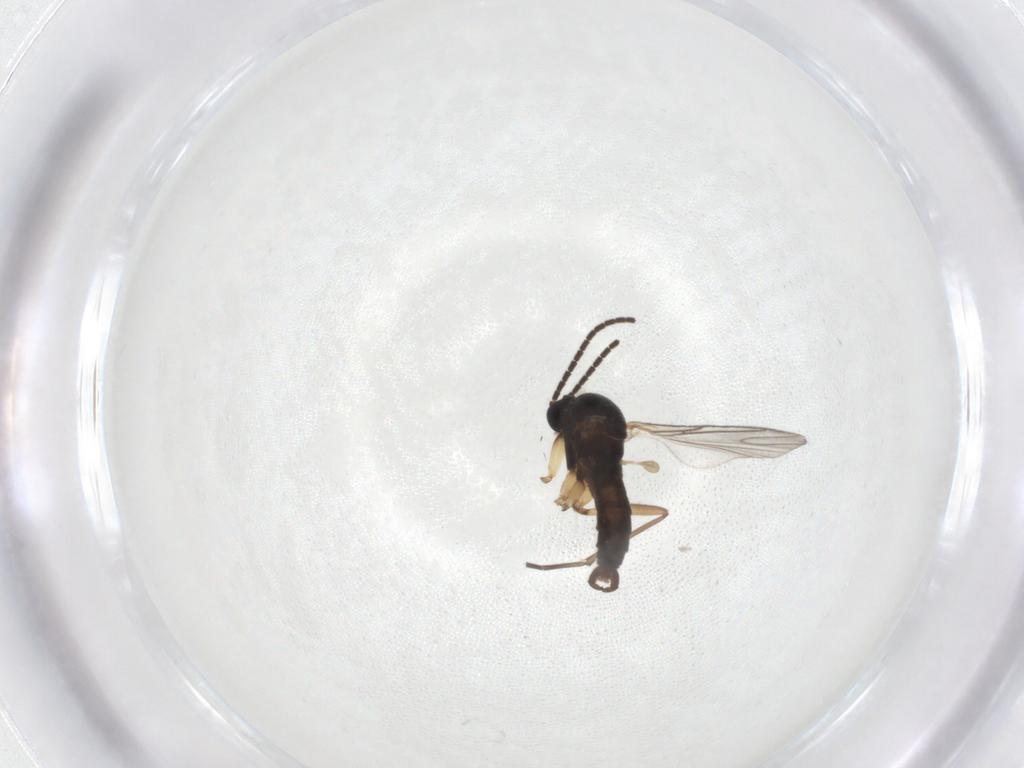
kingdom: Animalia
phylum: Arthropoda
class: Insecta
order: Diptera
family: Sciaridae
